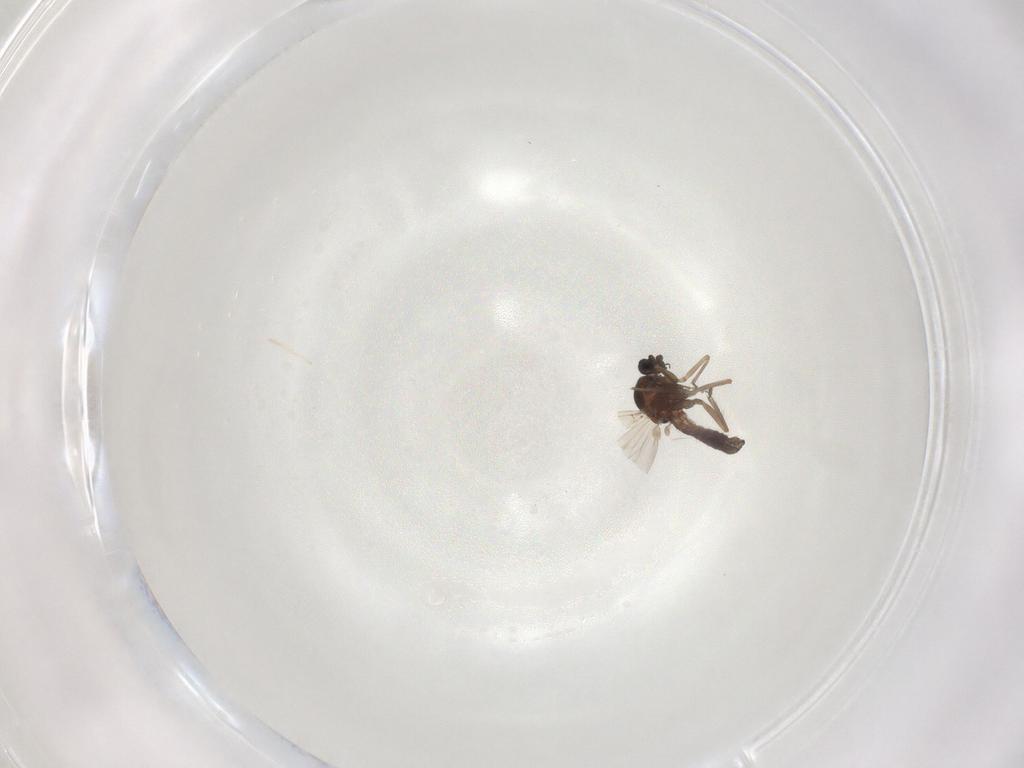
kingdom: Animalia
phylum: Arthropoda
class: Insecta
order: Diptera
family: Ceratopogonidae
